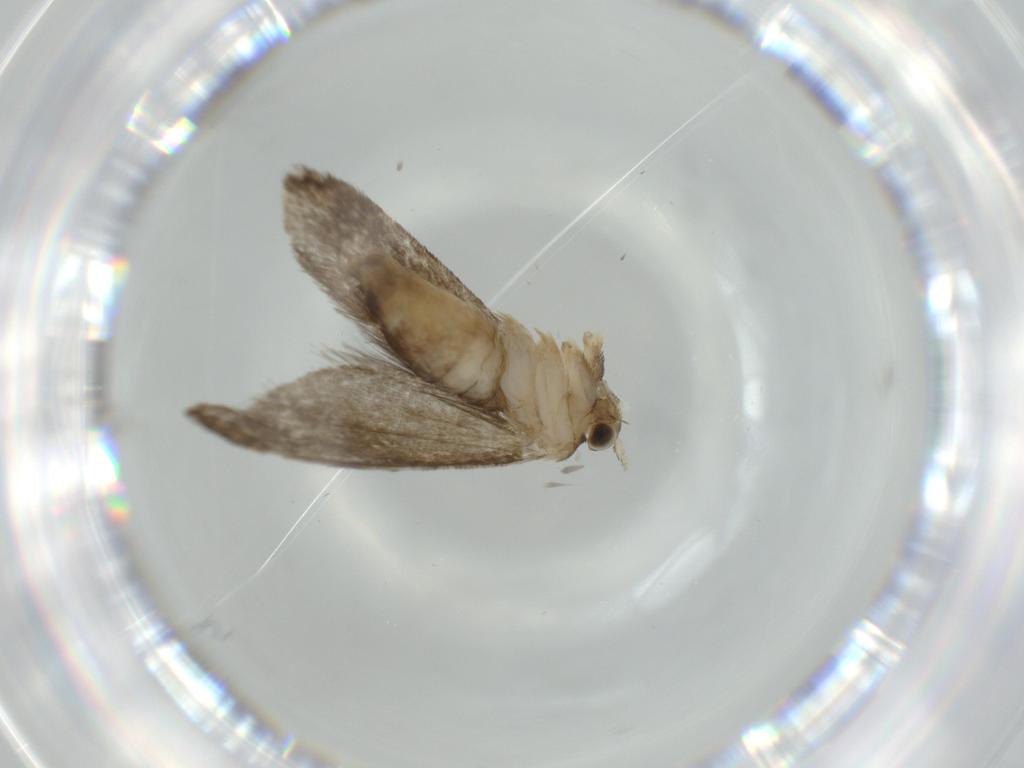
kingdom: Animalia
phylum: Arthropoda
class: Insecta
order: Lepidoptera
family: Tineidae
